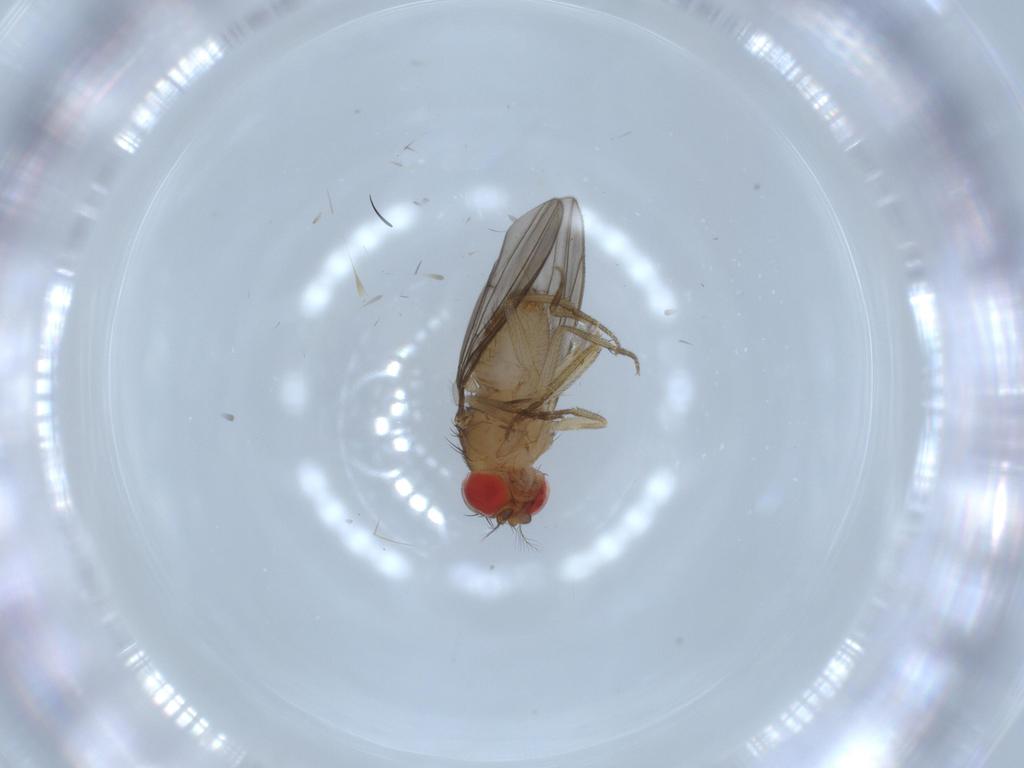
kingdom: Animalia
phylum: Arthropoda
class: Insecta
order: Diptera
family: Drosophilidae
